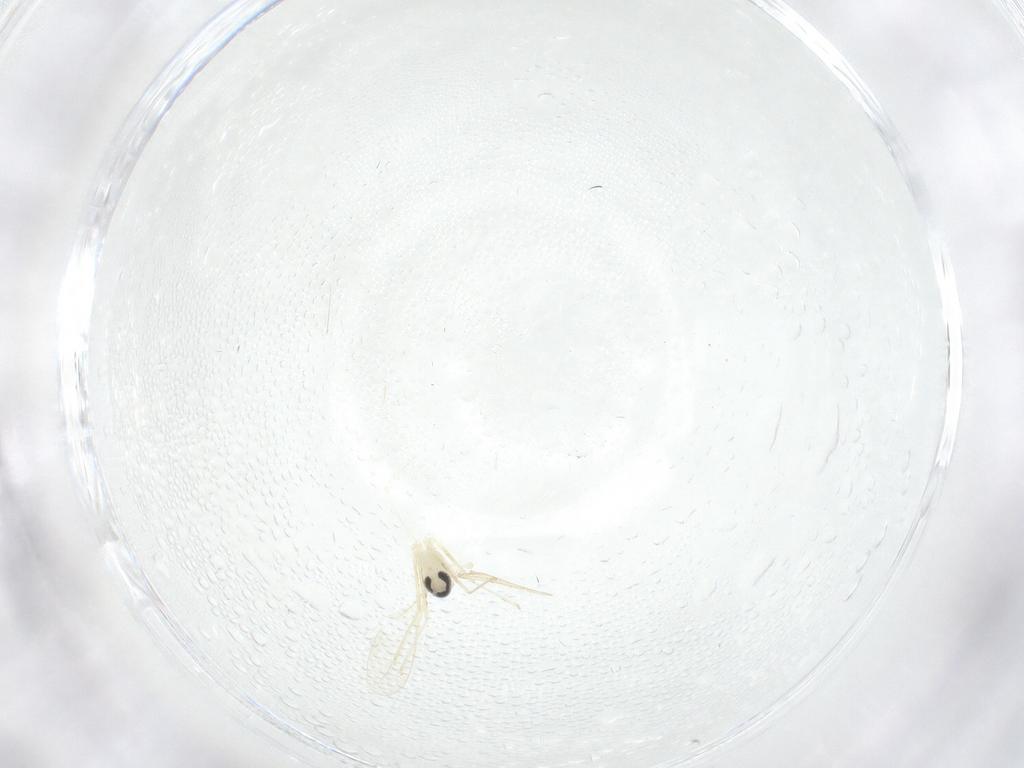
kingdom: Animalia
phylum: Arthropoda
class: Insecta
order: Diptera
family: Cecidomyiidae
